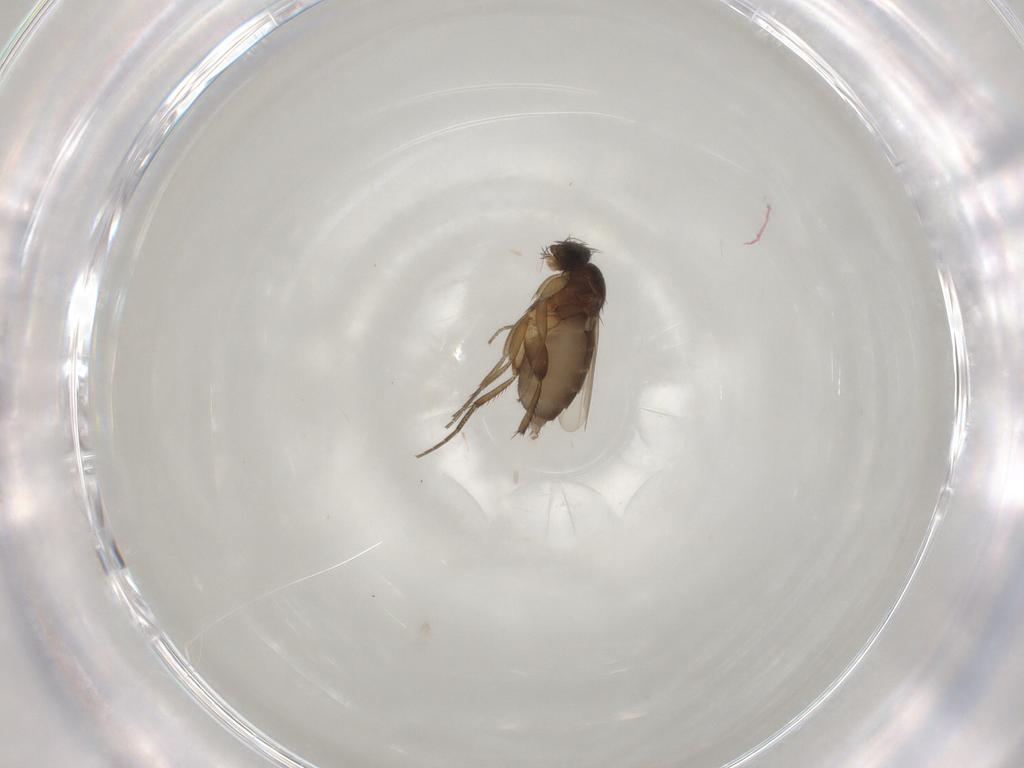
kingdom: Animalia
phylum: Arthropoda
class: Insecta
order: Diptera
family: Phoridae
